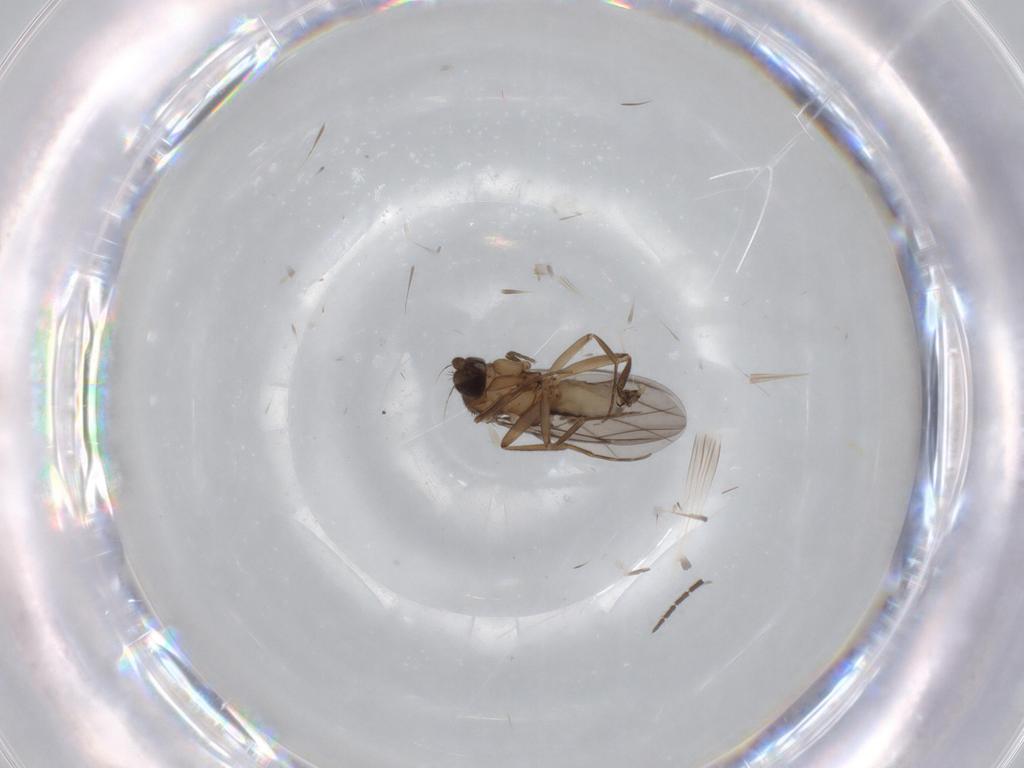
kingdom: Animalia
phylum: Arthropoda
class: Insecta
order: Diptera
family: Phoridae
